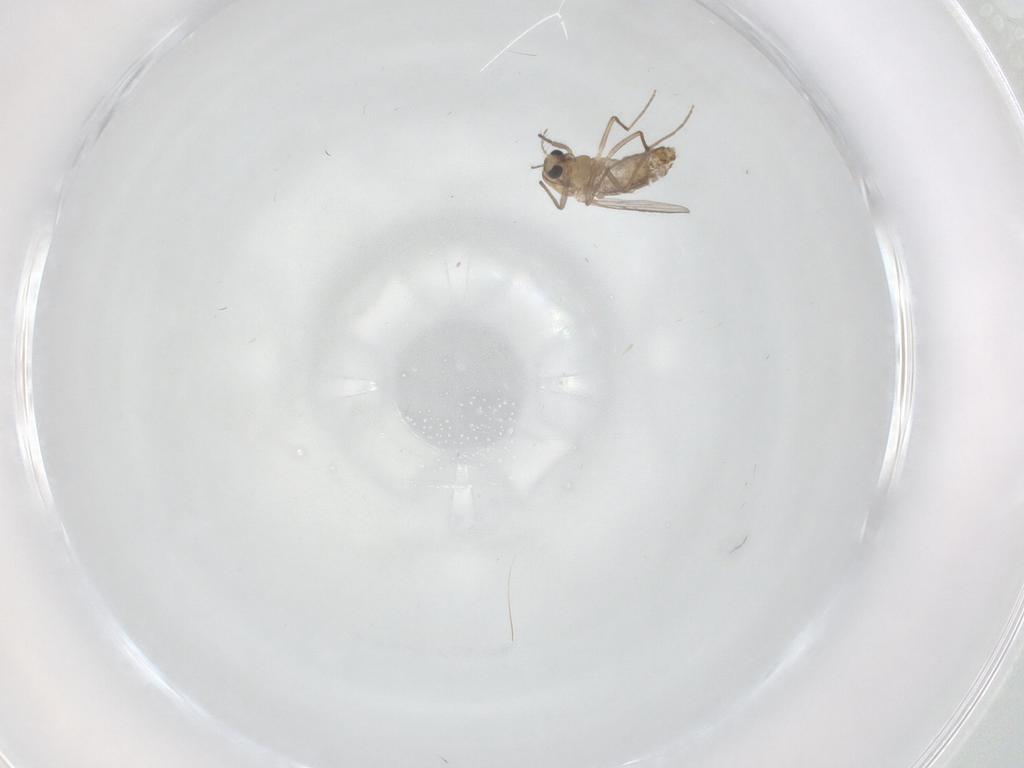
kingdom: Animalia
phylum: Arthropoda
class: Insecta
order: Diptera
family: Chironomidae
